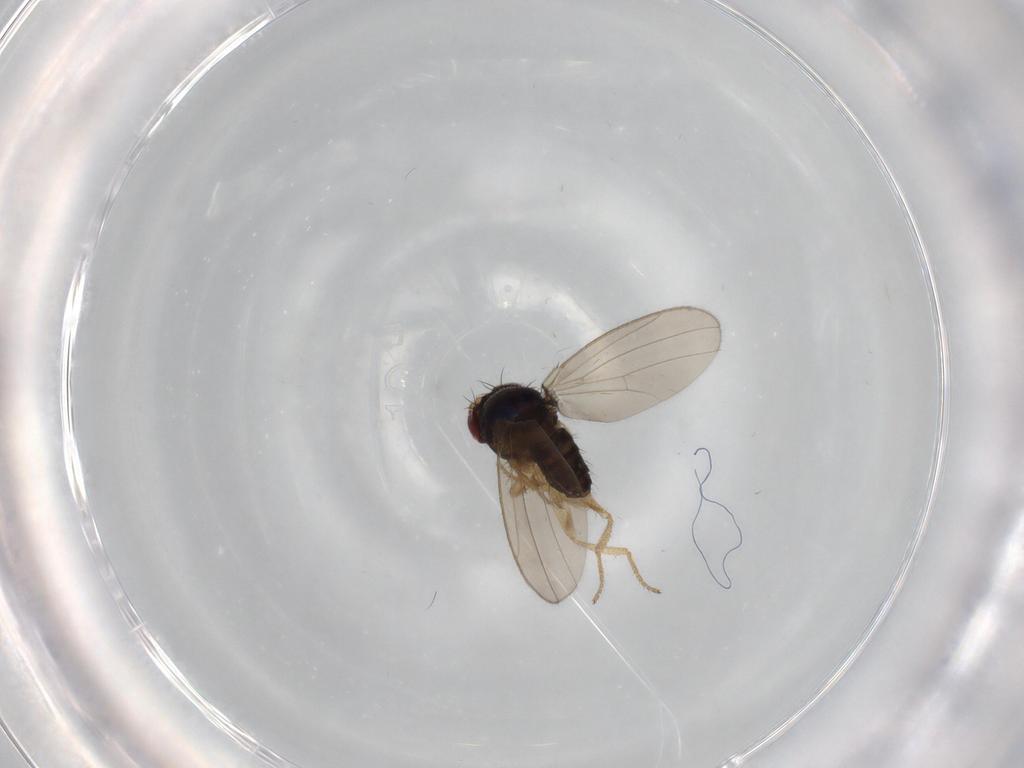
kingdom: Animalia
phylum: Arthropoda
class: Insecta
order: Diptera
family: Drosophilidae
